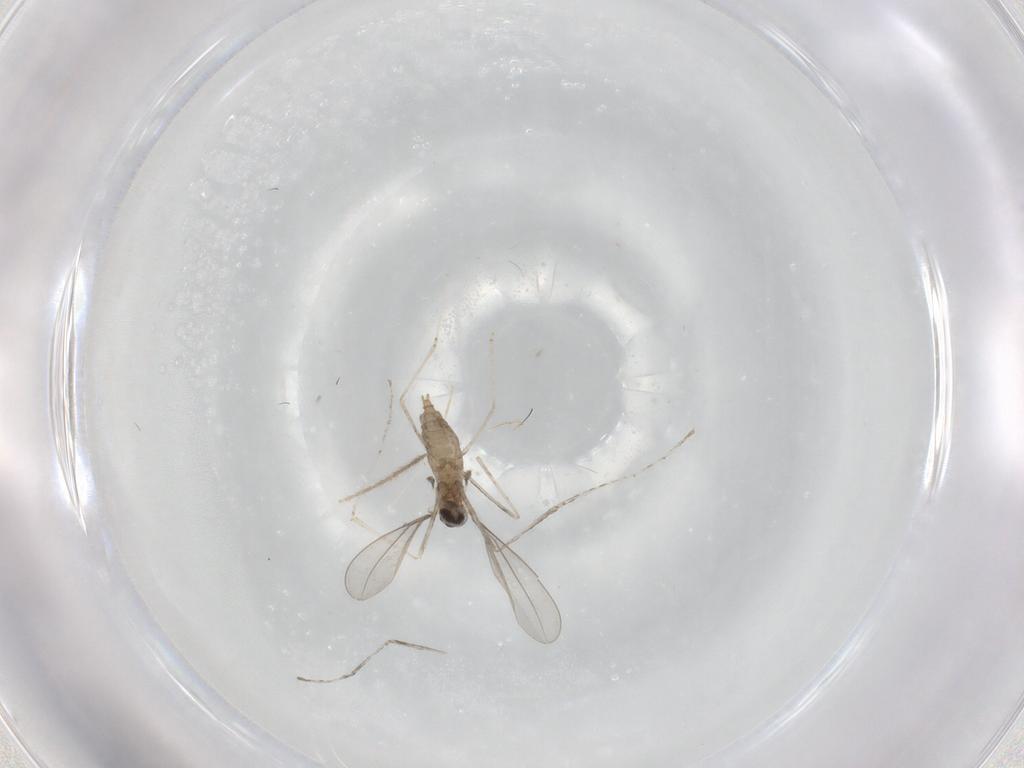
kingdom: Animalia
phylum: Arthropoda
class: Insecta
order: Diptera
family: Chironomidae
